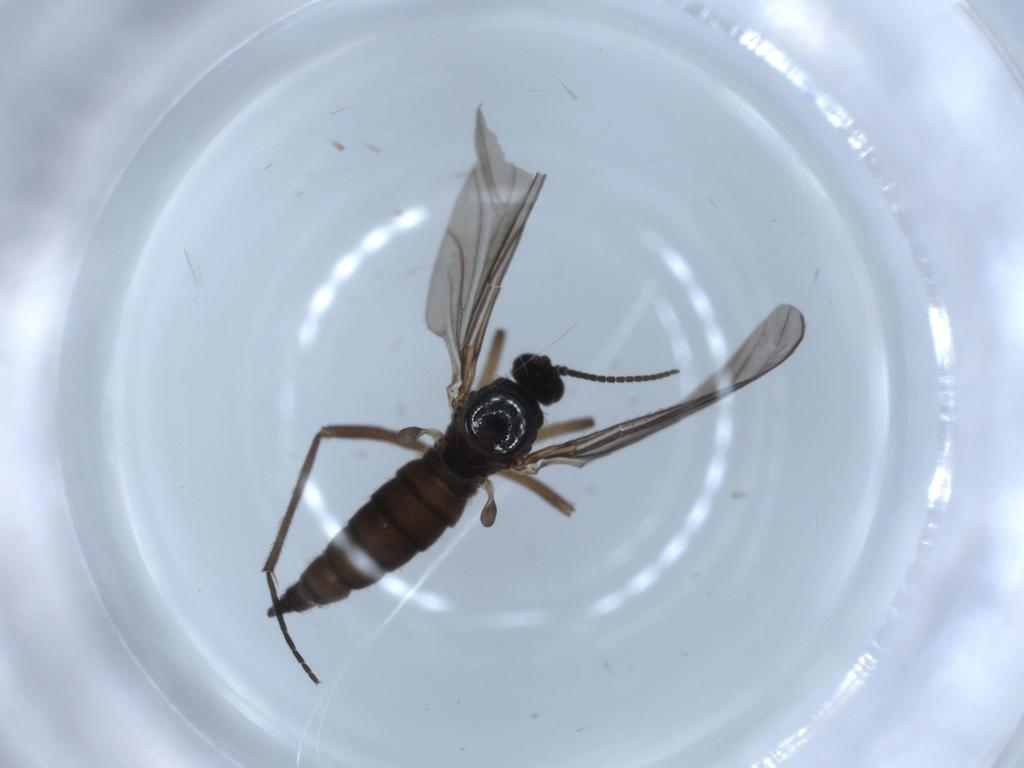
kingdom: Animalia
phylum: Arthropoda
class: Insecta
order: Diptera
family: Sciaridae
